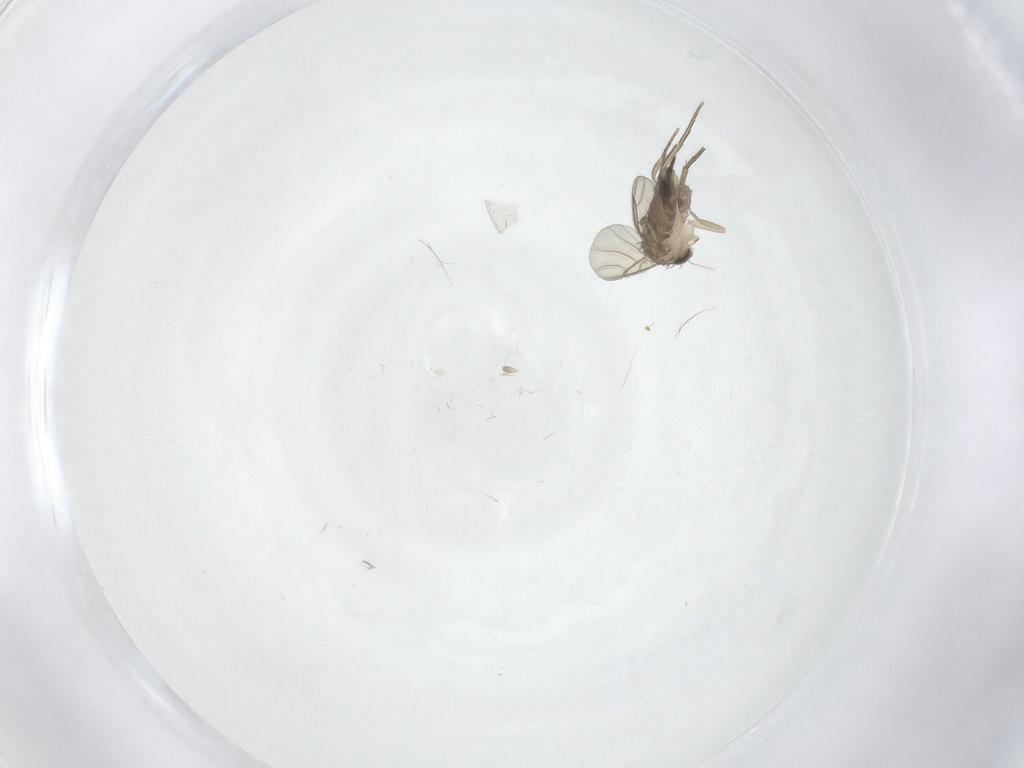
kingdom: Animalia
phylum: Arthropoda
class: Insecta
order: Diptera
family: Phoridae
